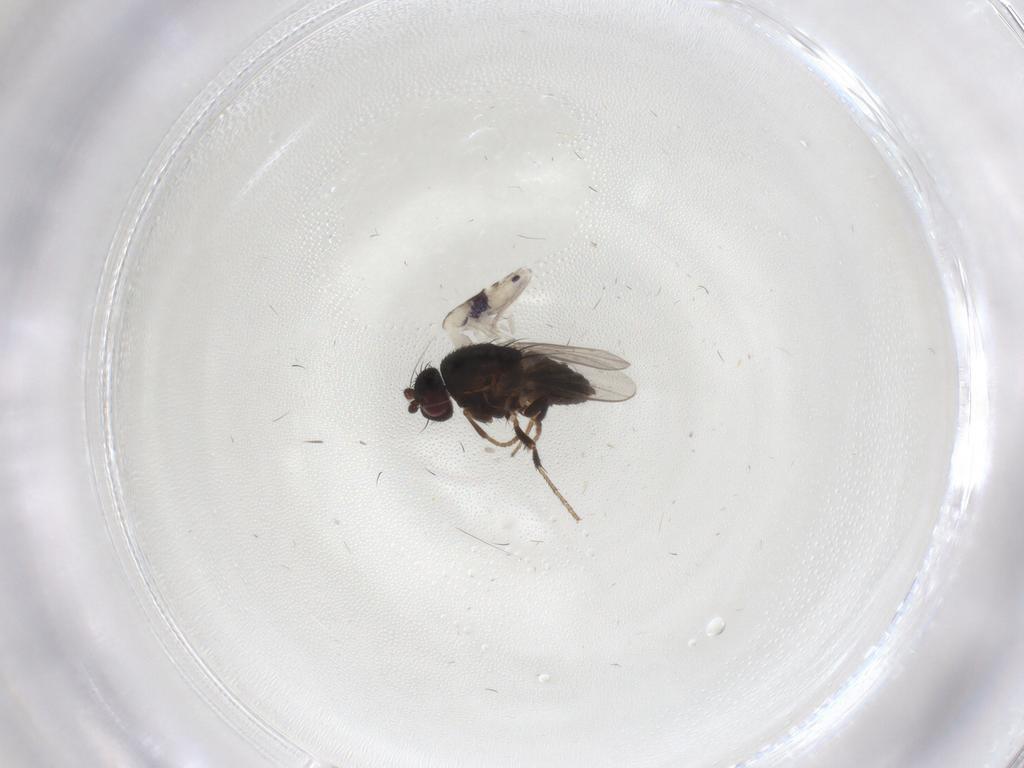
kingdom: Animalia
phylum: Arthropoda
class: Insecta
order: Diptera
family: Sphaeroceridae
